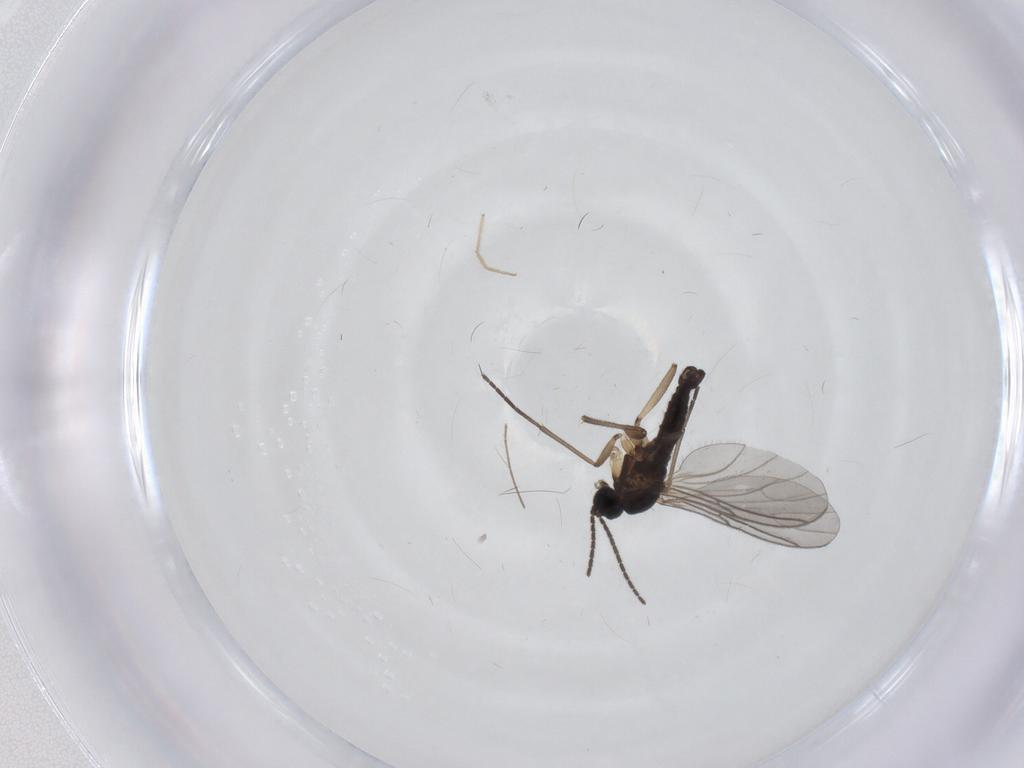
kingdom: Animalia
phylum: Arthropoda
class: Insecta
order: Diptera
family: Sciaridae
